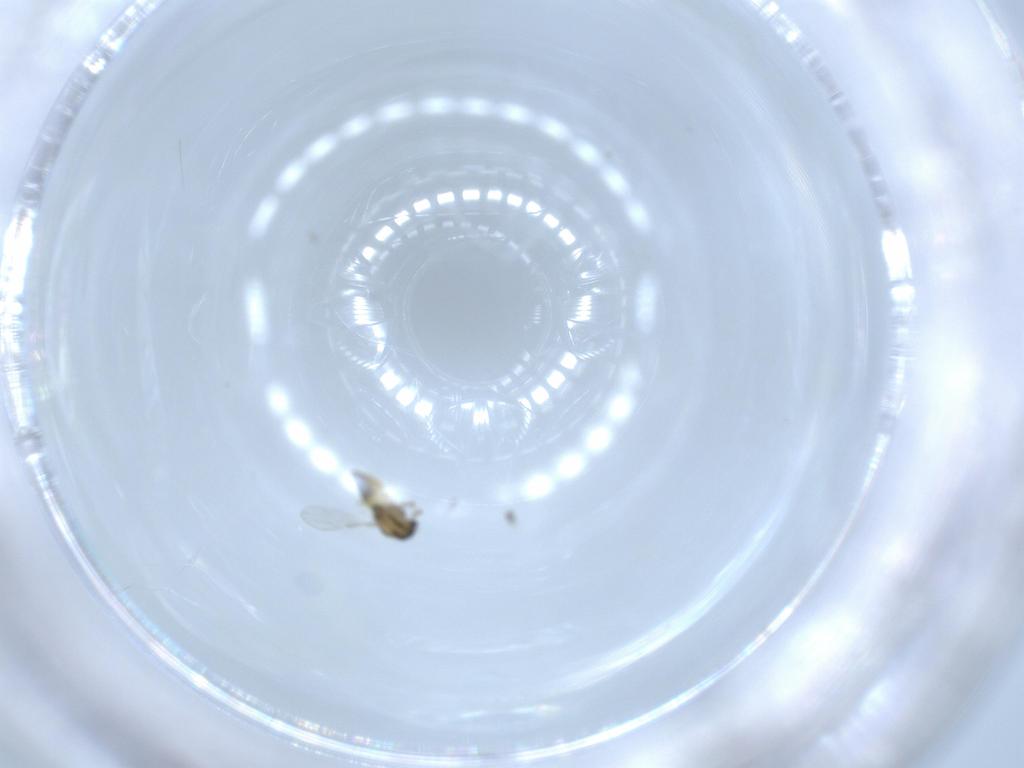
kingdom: Animalia
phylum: Arthropoda
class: Insecta
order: Diptera
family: Chironomidae
